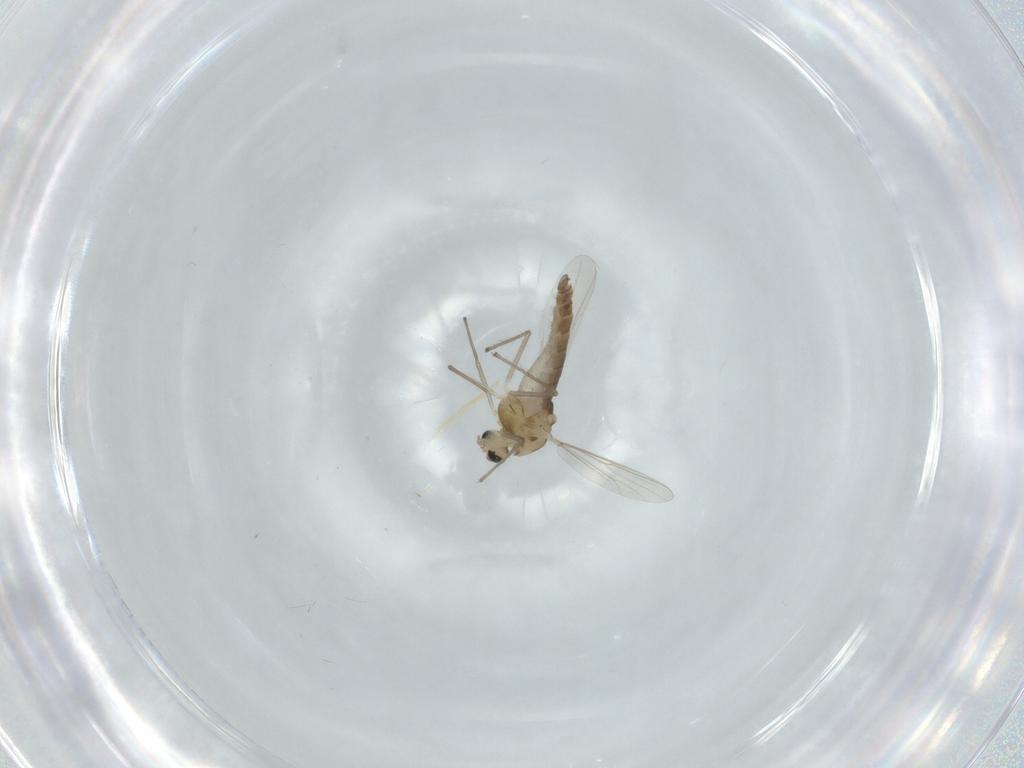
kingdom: Animalia
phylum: Arthropoda
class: Insecta
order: Diptera
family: Chironomidae
